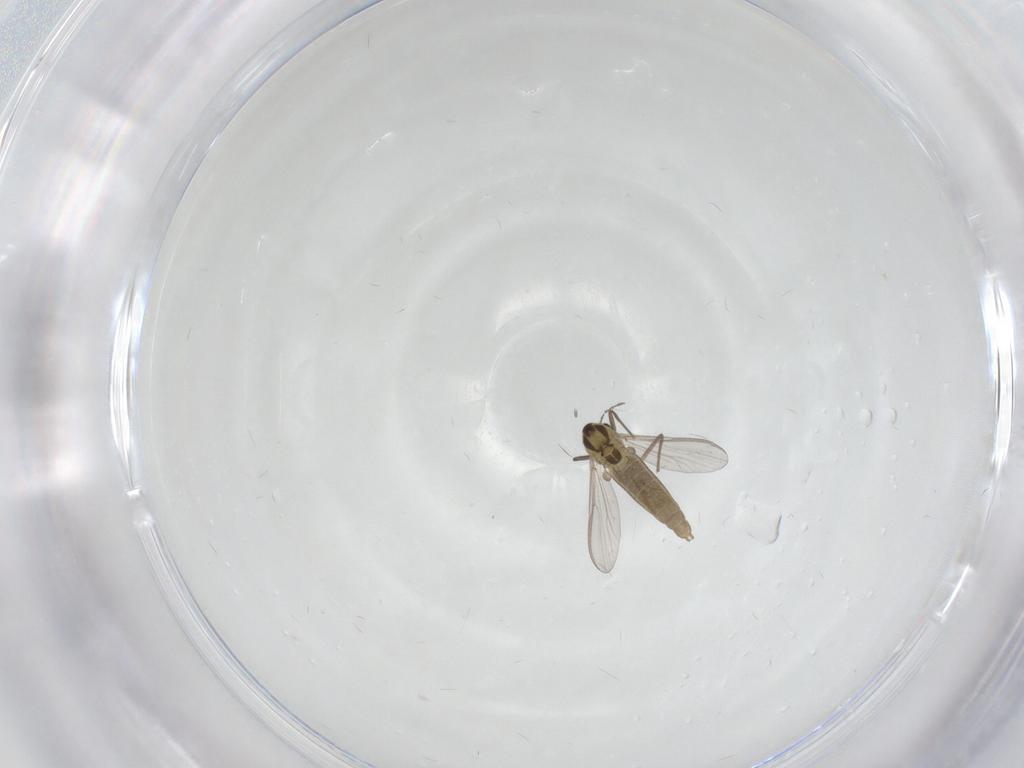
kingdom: Animalia
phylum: Arthropoda
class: Insecta
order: Diptera
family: Chironomidae
